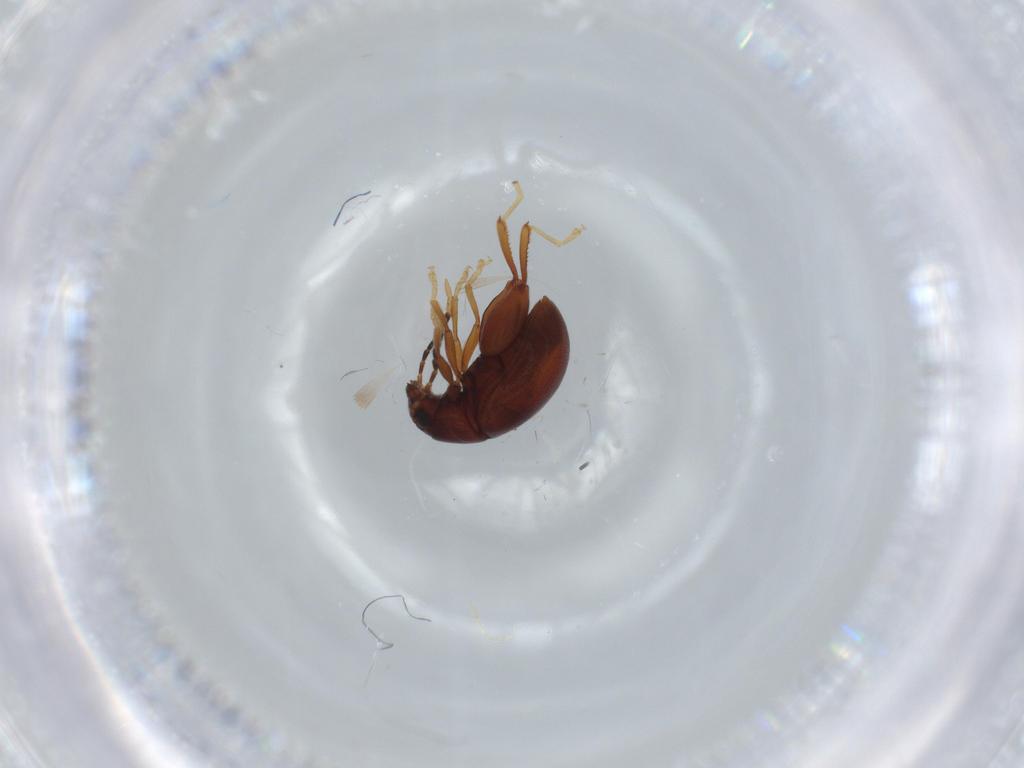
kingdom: Animalia
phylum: Arthropoda
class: Insecta
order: Coleoptera
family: Chrysomelidae
